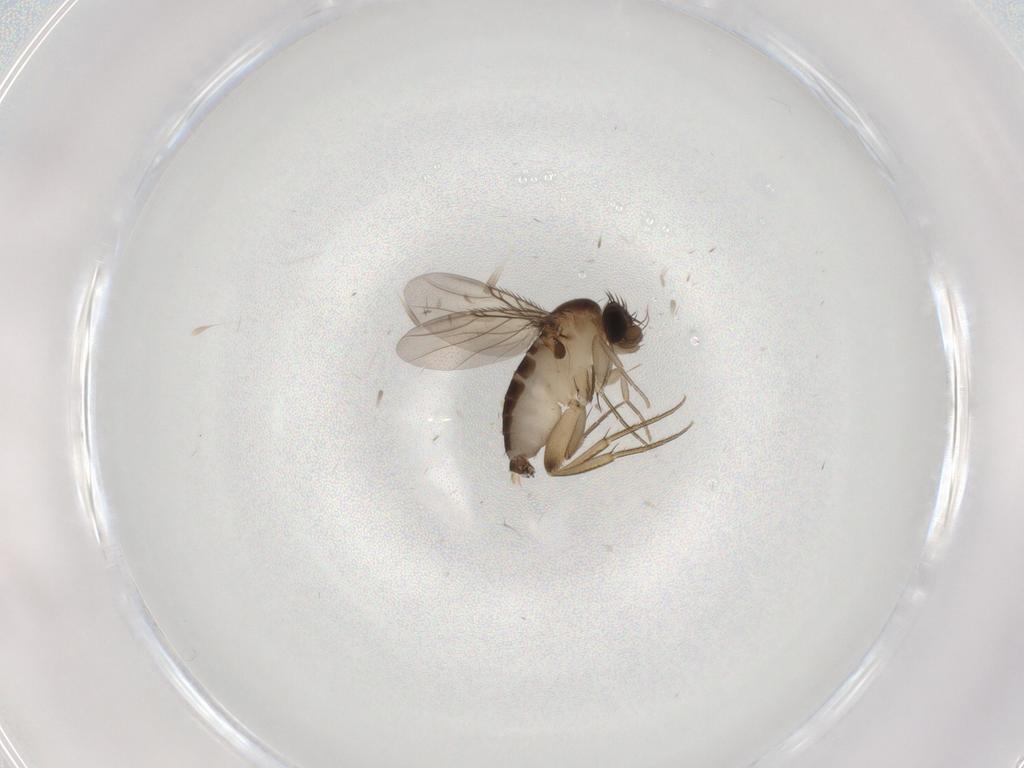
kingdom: Animalia
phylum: Arthropoda
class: Insecta
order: Diptera
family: Phoridae
